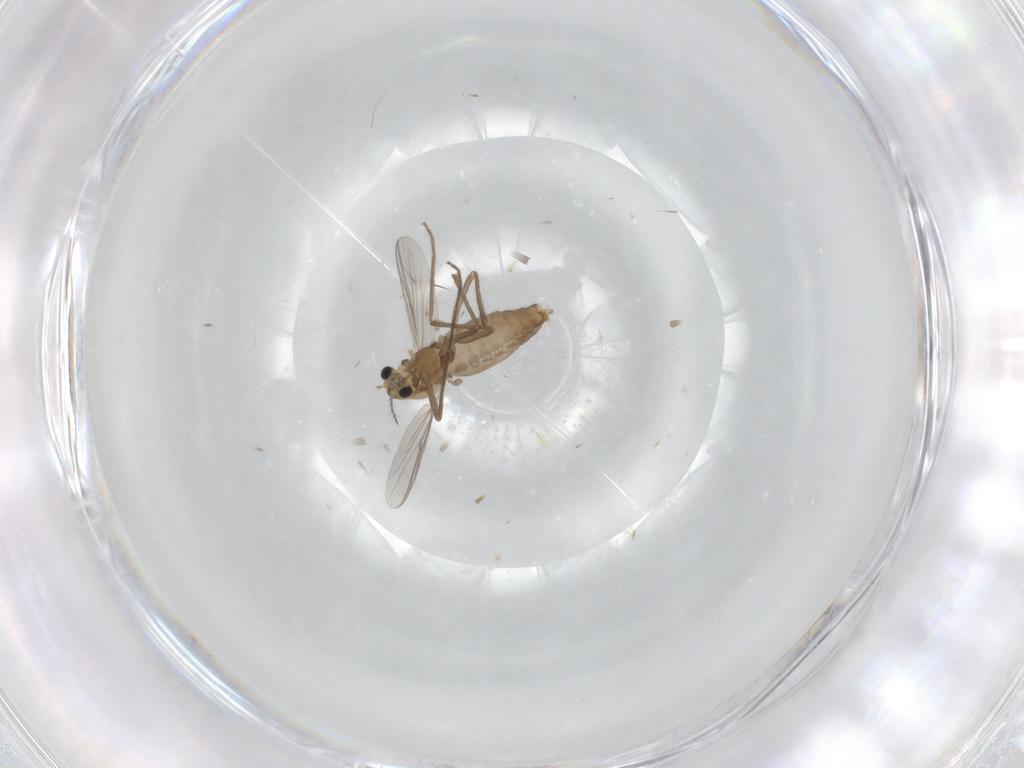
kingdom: Animalia
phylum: Arthropoda
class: Insecta
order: Diptera
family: Chironomidae
